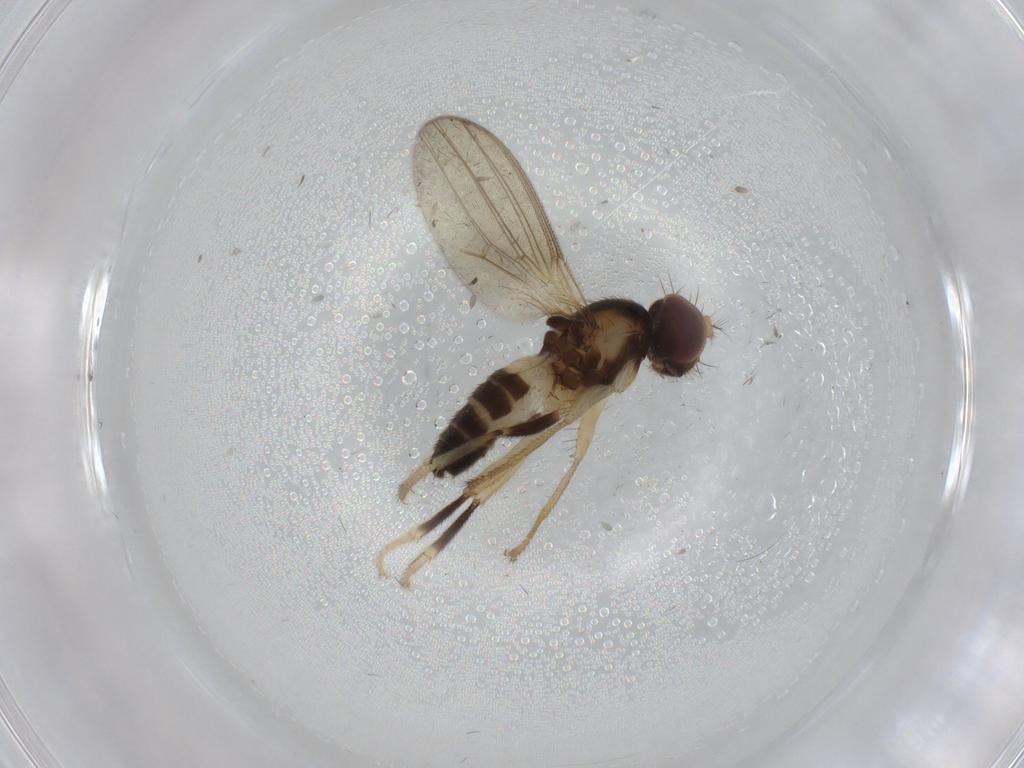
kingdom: Animalia
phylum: Arthropoda
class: Insecta
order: Diptera
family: Periscelididae
